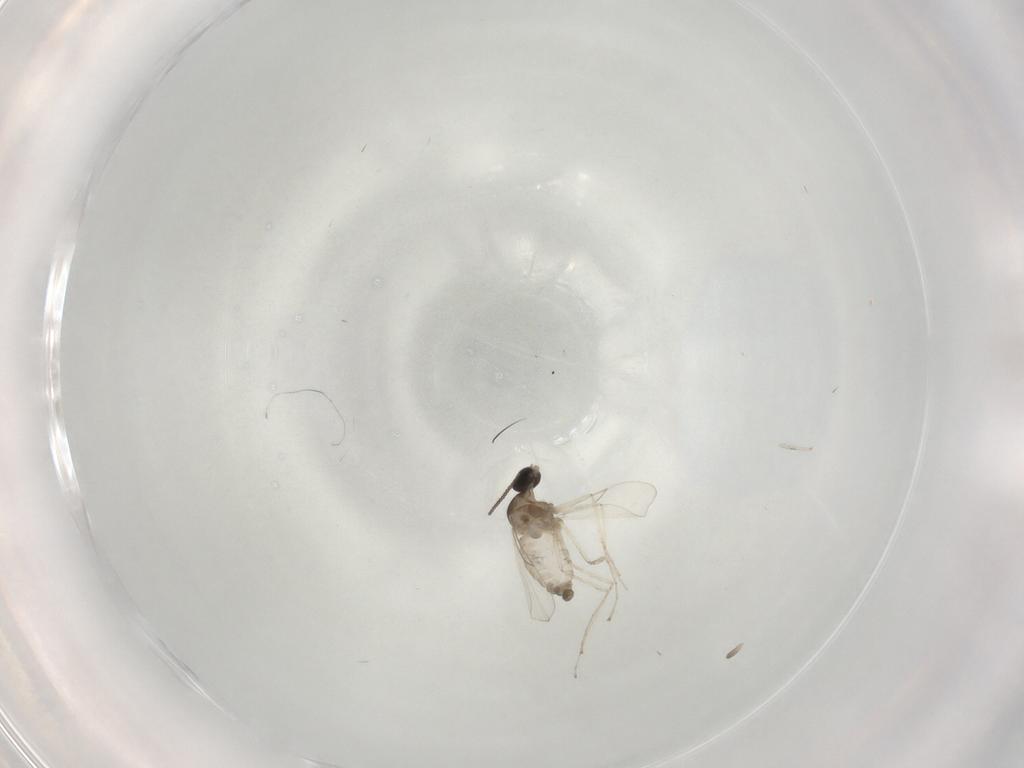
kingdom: Animalia
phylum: Arthropoda
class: Insecta
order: Diptera
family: Cecidomyiidae
